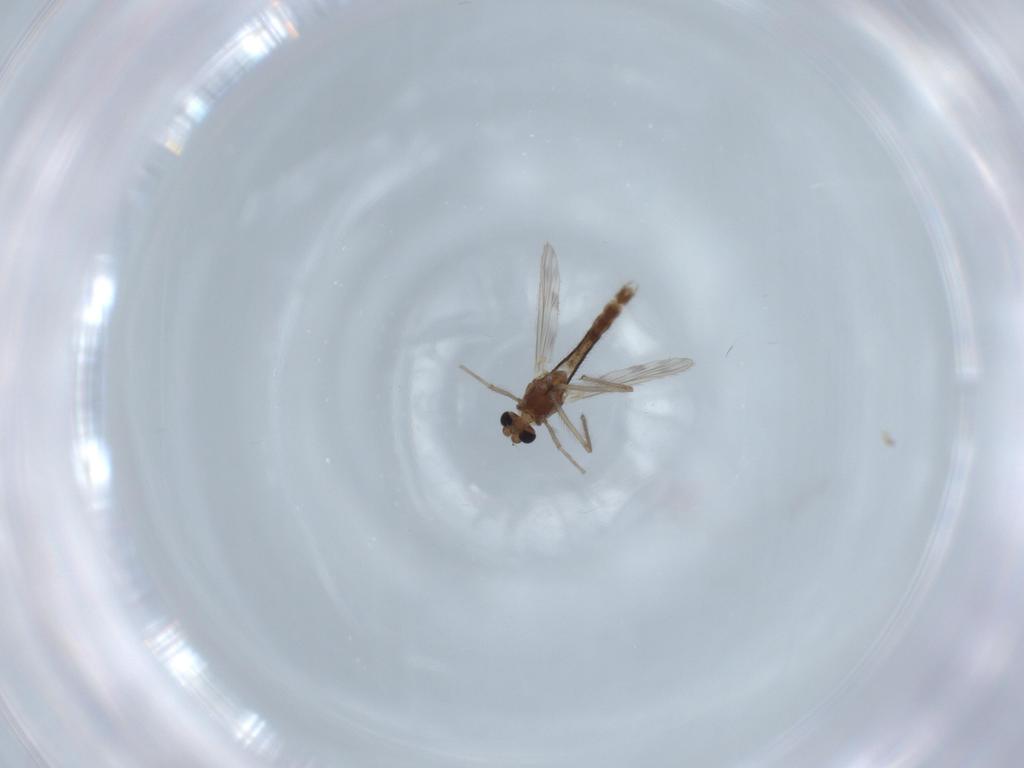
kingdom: Animalia
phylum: Arthropoda
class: Insecta
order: Diptera
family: Chironomidae
